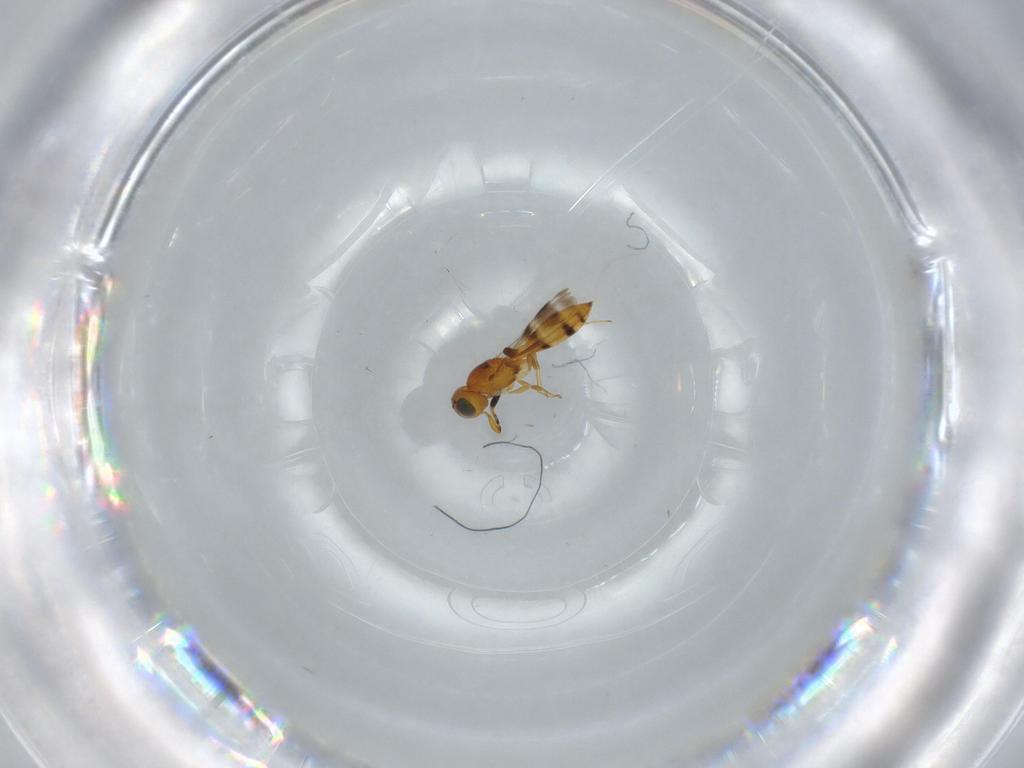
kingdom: Animalia
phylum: Arthropoda
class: Insecta
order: Hymenoptera
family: Scelionidae
